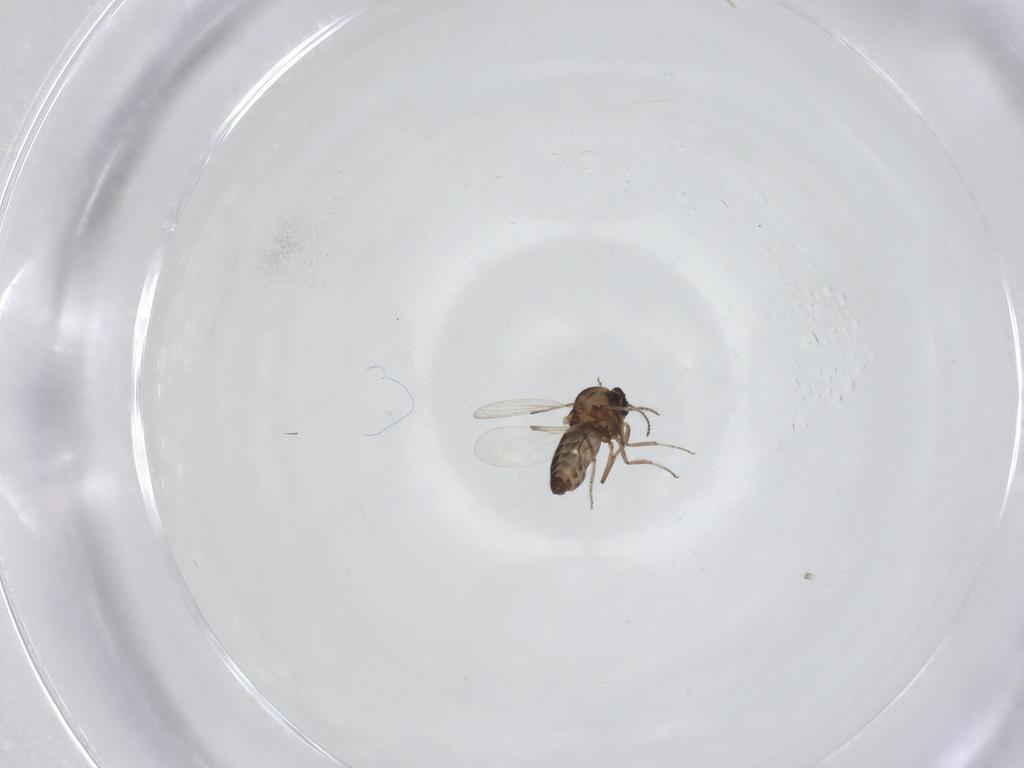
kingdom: Animalia
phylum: Arthropoda
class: Insecta
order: Diptera
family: Ceratopogonidae
